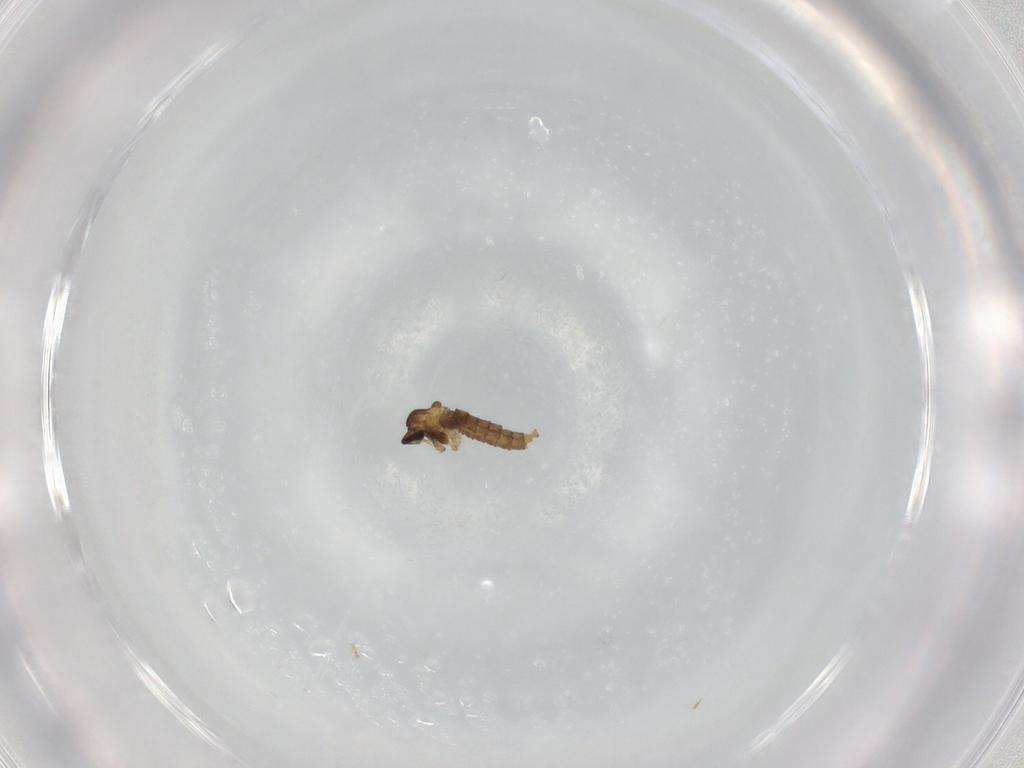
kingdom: Animalia
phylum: Arthropoda
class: Insecta
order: Diptera
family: Cecidomyiidae
